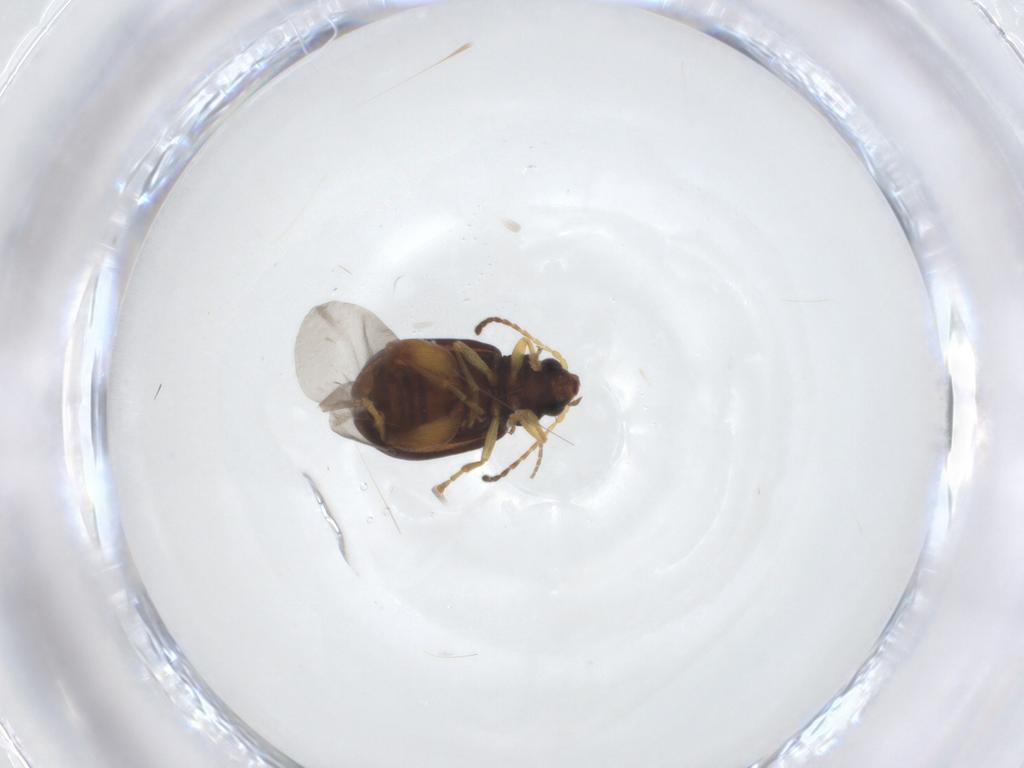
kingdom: Animalia
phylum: Arthropoda
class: Insecta
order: Coleoptera
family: Chrysomelidae
